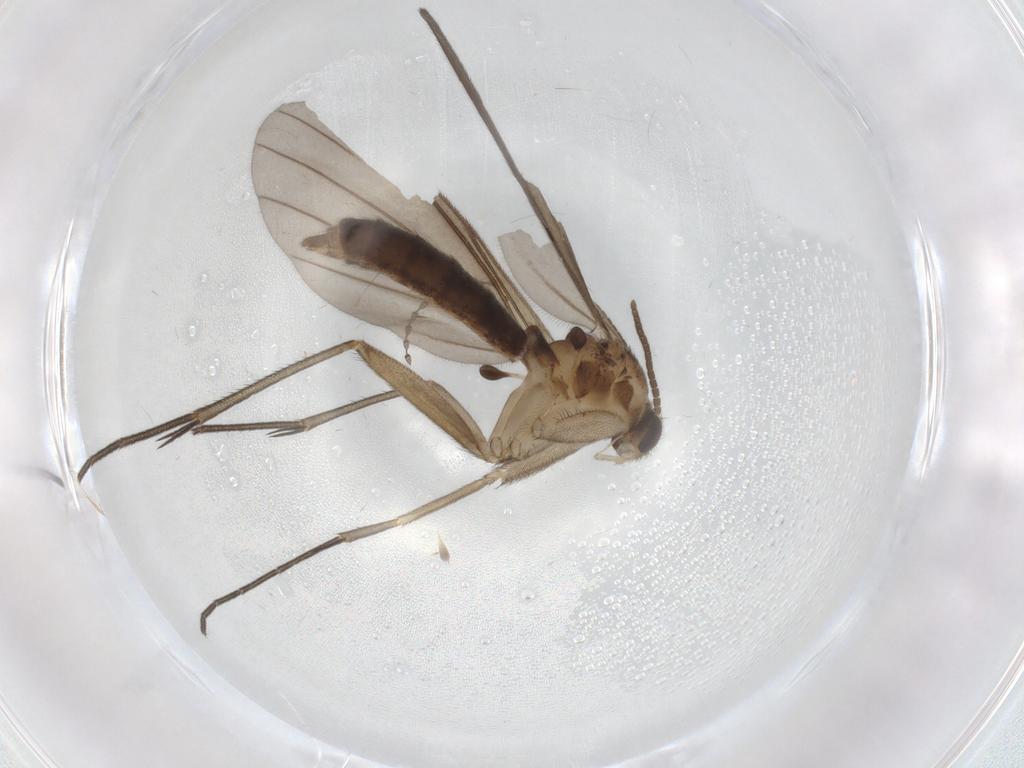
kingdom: Animalia
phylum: Arthropoda
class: Insecta
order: Diptera
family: Mycetophilidae
